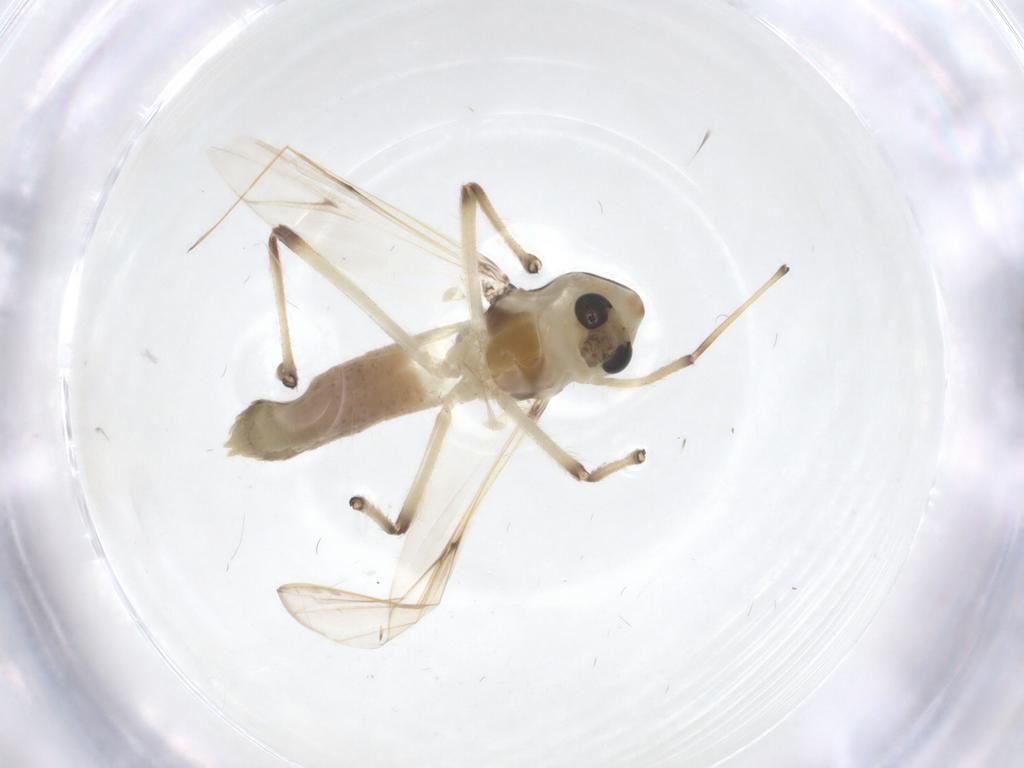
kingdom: Animalia
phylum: Arthropoda
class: Insecta
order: Diptera
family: Chironomidae
